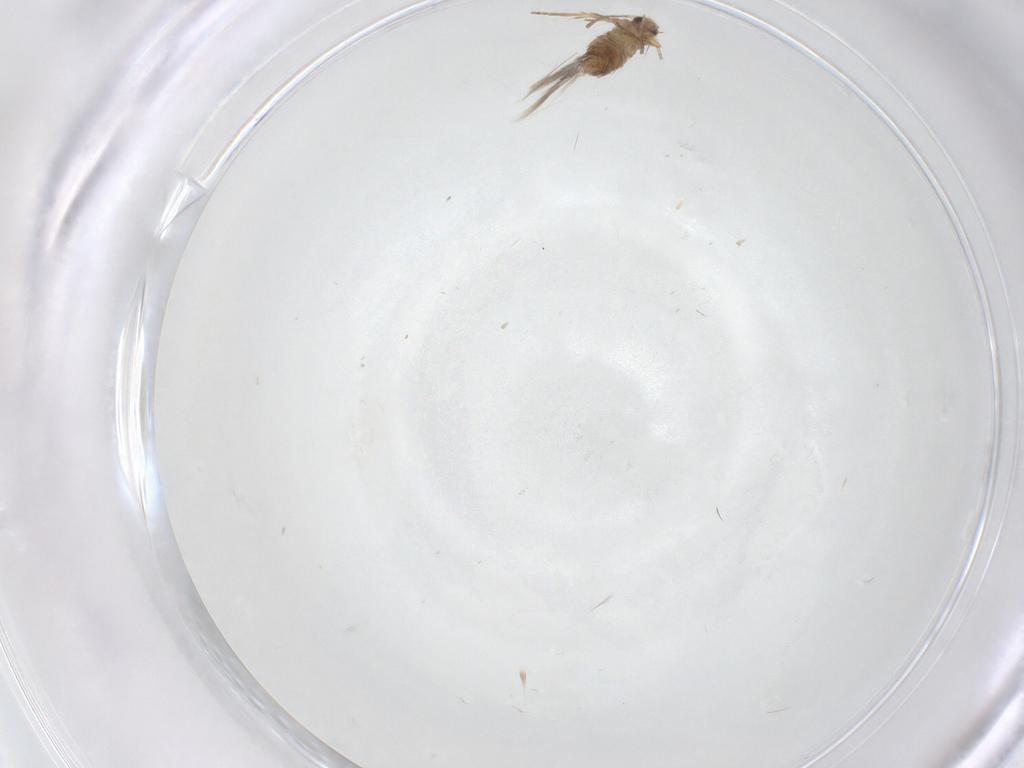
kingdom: Animalia
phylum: Arthropoda
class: Insecta
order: Lepidoptera
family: Nepticulidae
